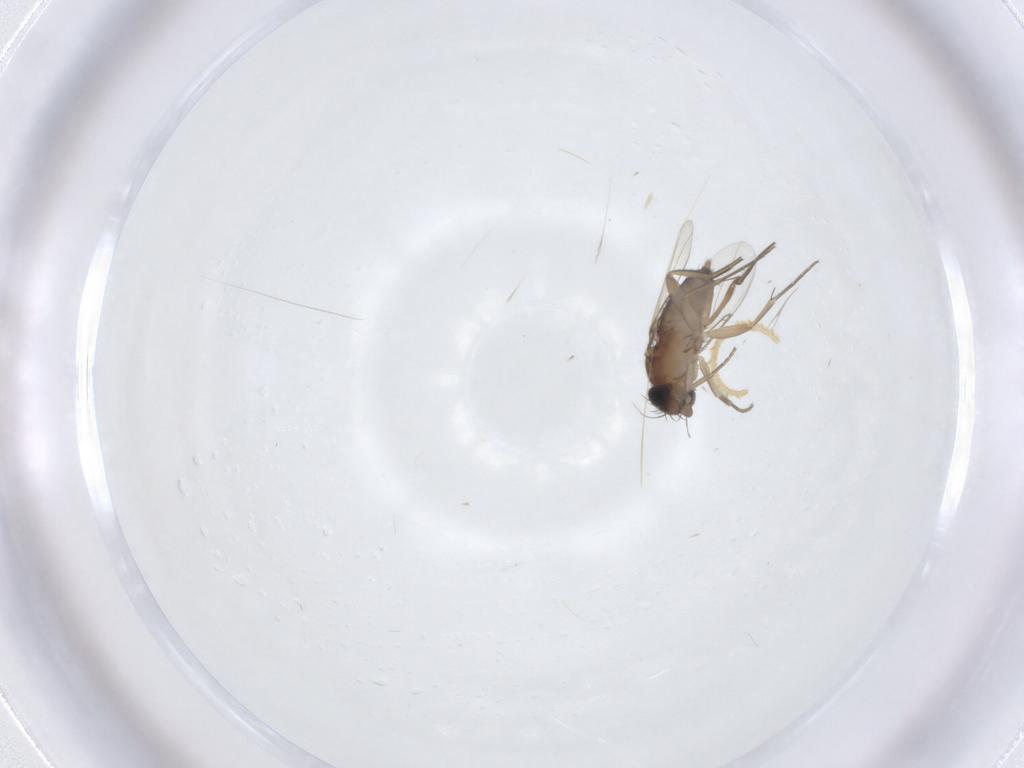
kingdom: Animalia
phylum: Arthropoda
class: Insecta
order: Diptera
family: Phoridae
